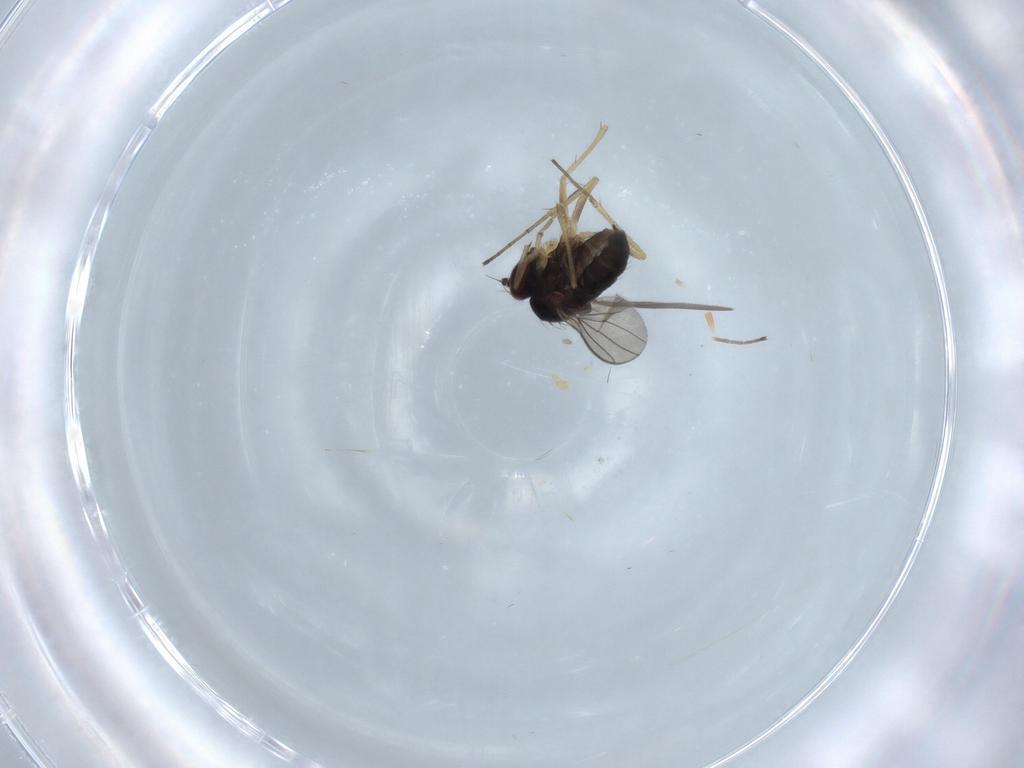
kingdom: Animalia
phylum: Arthropoda
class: Insecta
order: Diptera
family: Dolichopodidae
